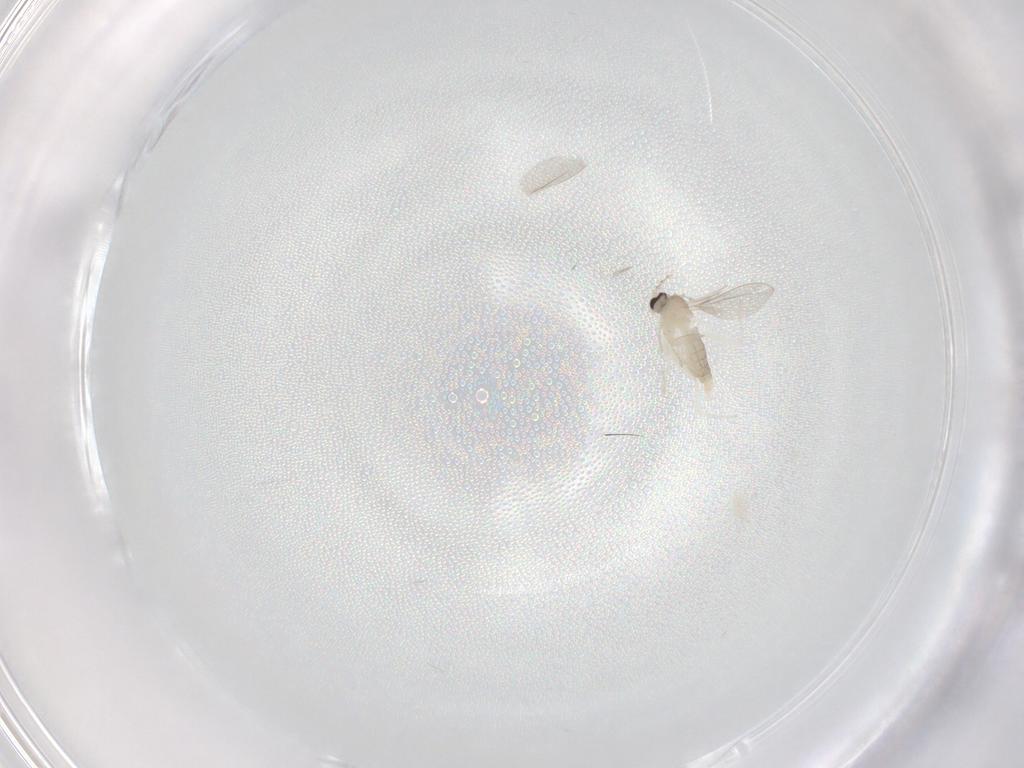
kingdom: Animalia
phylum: Arthropoda
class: Insecta
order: Diptera
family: Cecidomyiidae
